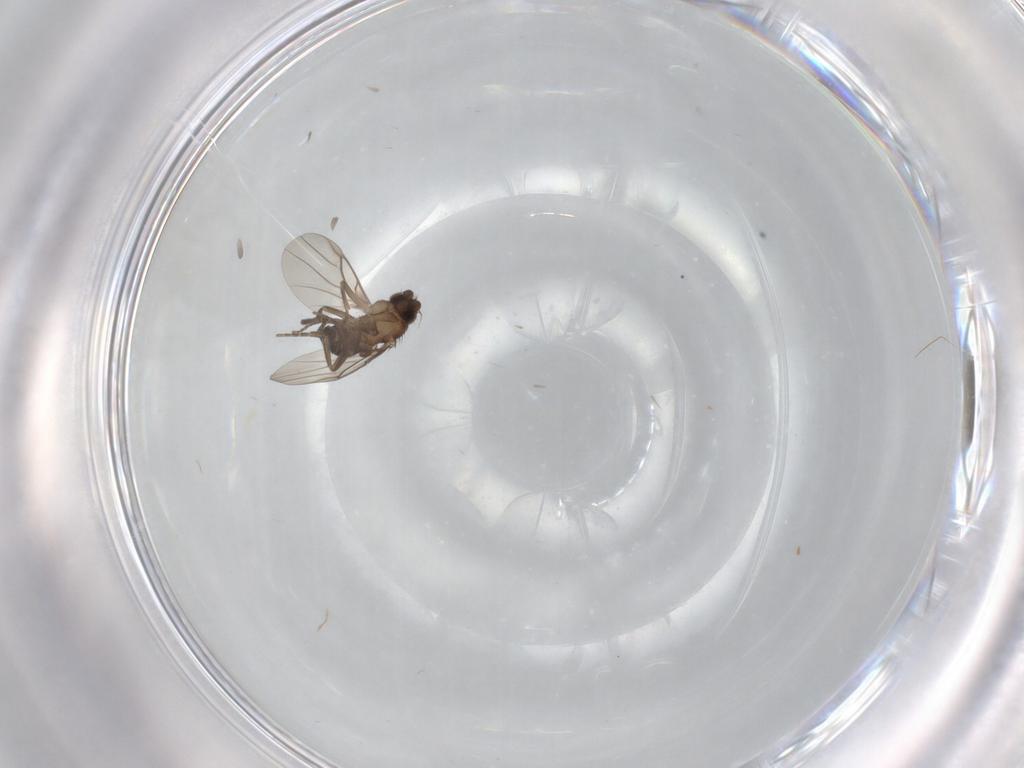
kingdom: Animalia
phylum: Arthropoda
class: Insecta
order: Diptera
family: Phoridae
